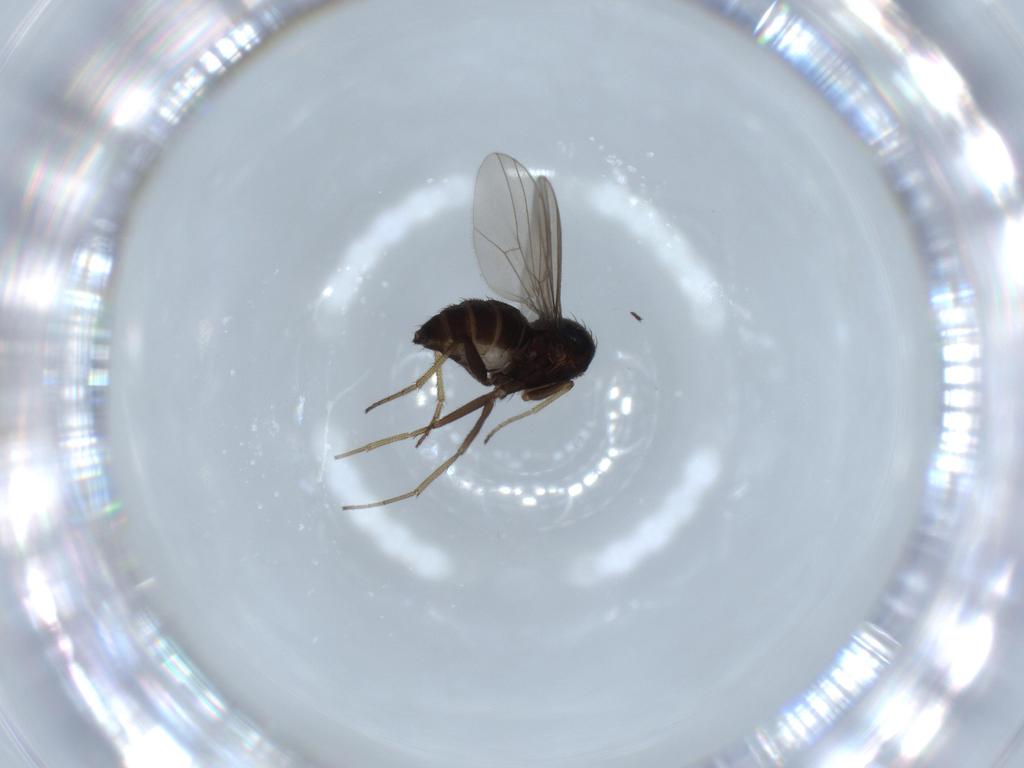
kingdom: Animalia
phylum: Arthropoda
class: Insecta
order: Diptera
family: Dolichopodidae
